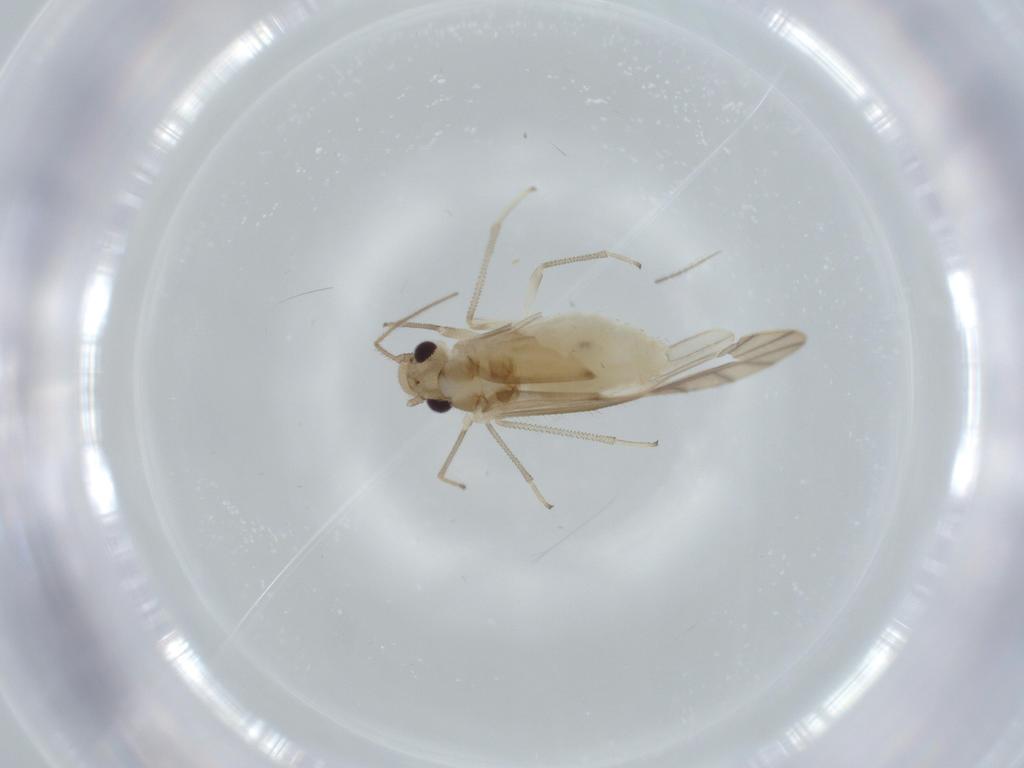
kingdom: Animalia
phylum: Arthropoda
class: Insecta
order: Psocodea
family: Caeciliusidae
